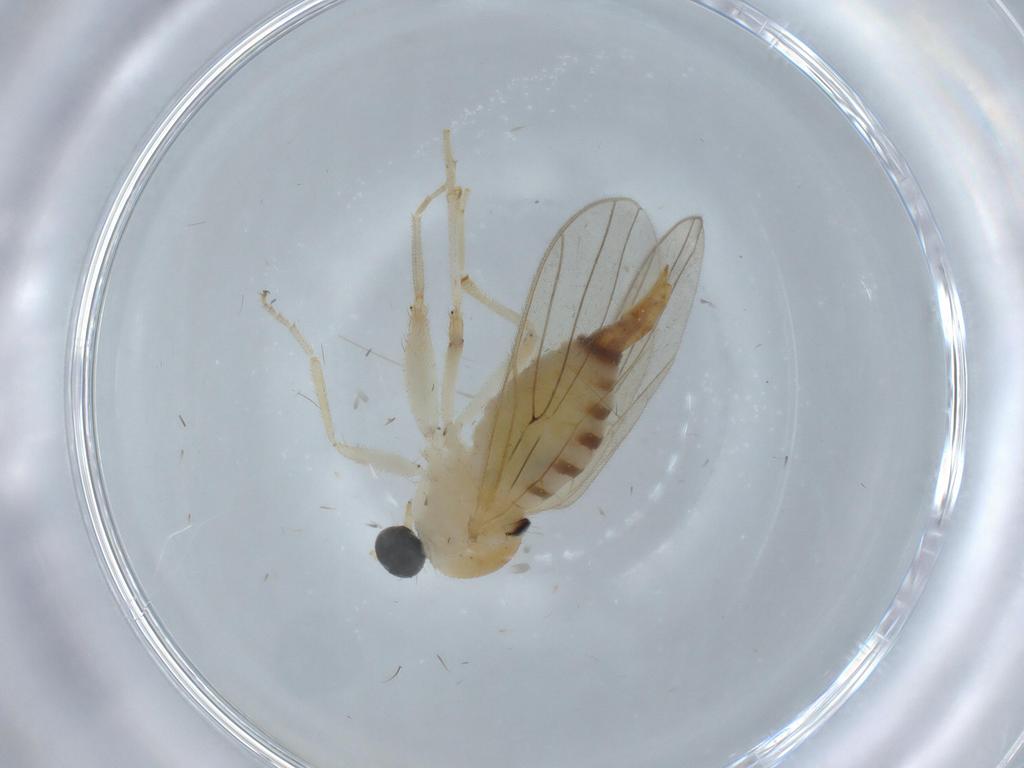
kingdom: Animalia
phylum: Arthropoda
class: Insecta
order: Diptera
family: Hybotidae
